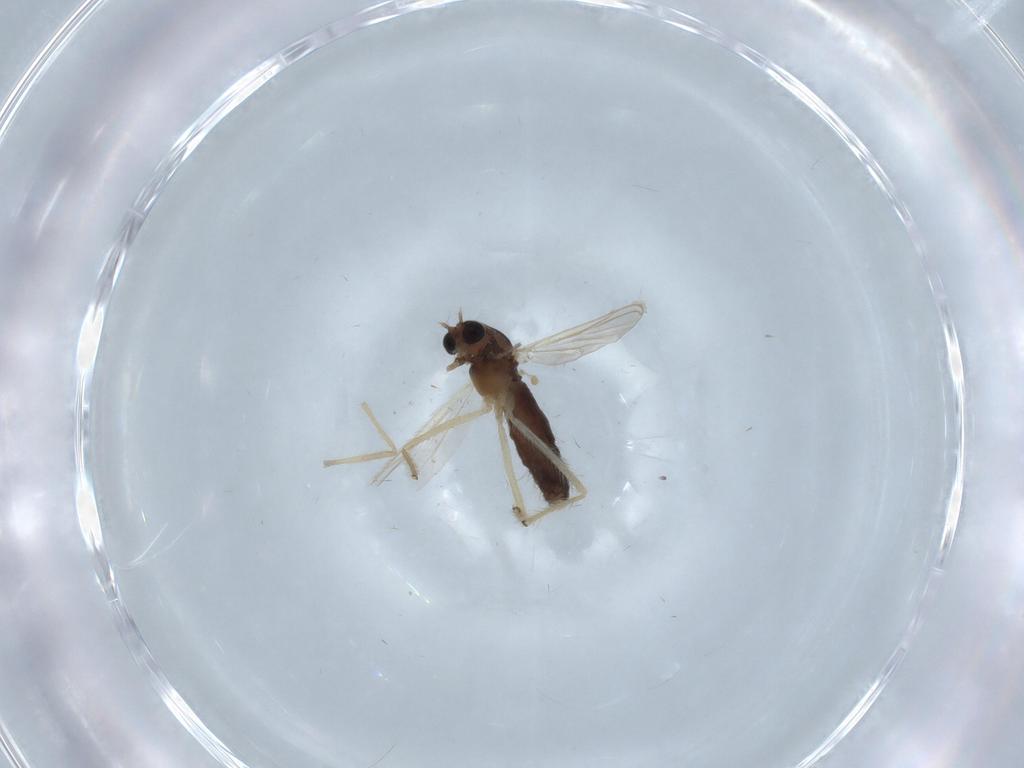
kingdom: Animalia
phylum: Arthropoda
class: Insecta
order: Diptera
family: Chironomidae
